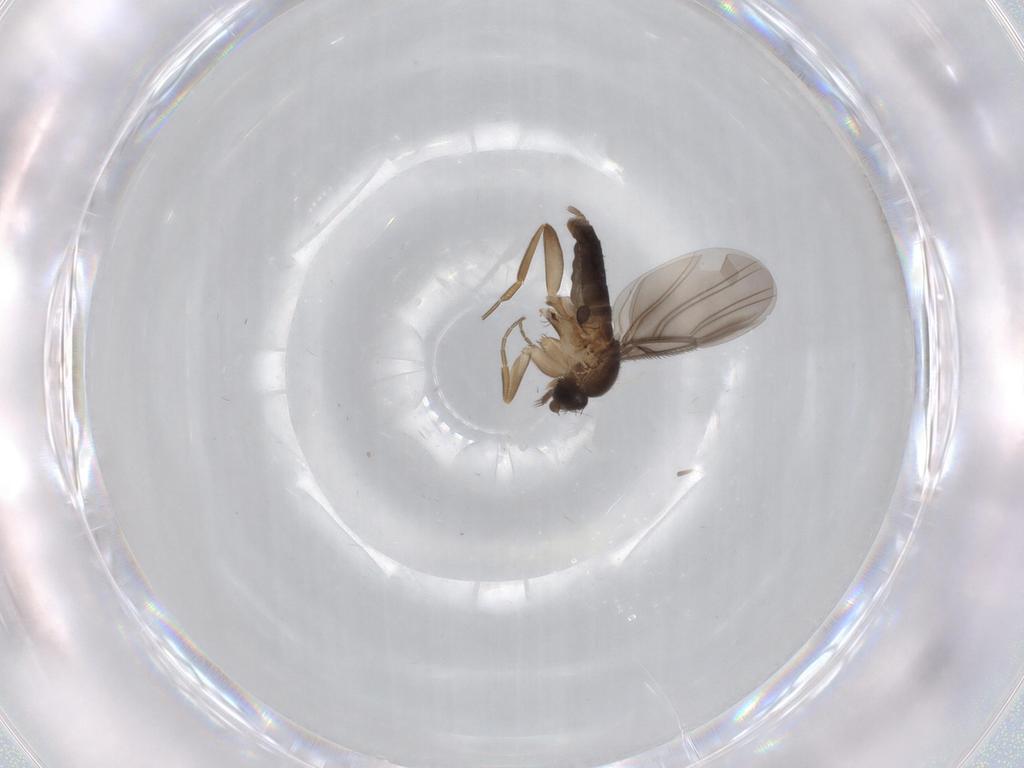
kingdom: Animalia
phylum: Arthropoda
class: Insecta
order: Diptera
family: Phoridae
